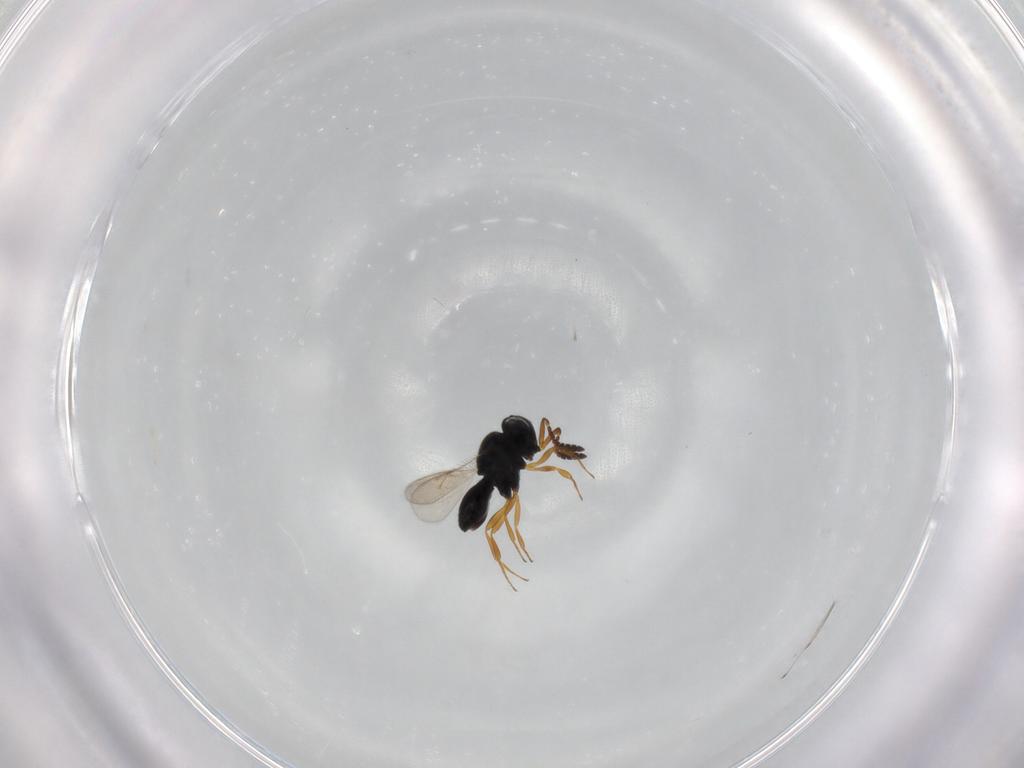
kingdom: Animalia
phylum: Arthropoda
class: Insecta
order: Hymenoptera
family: Scelionidae
